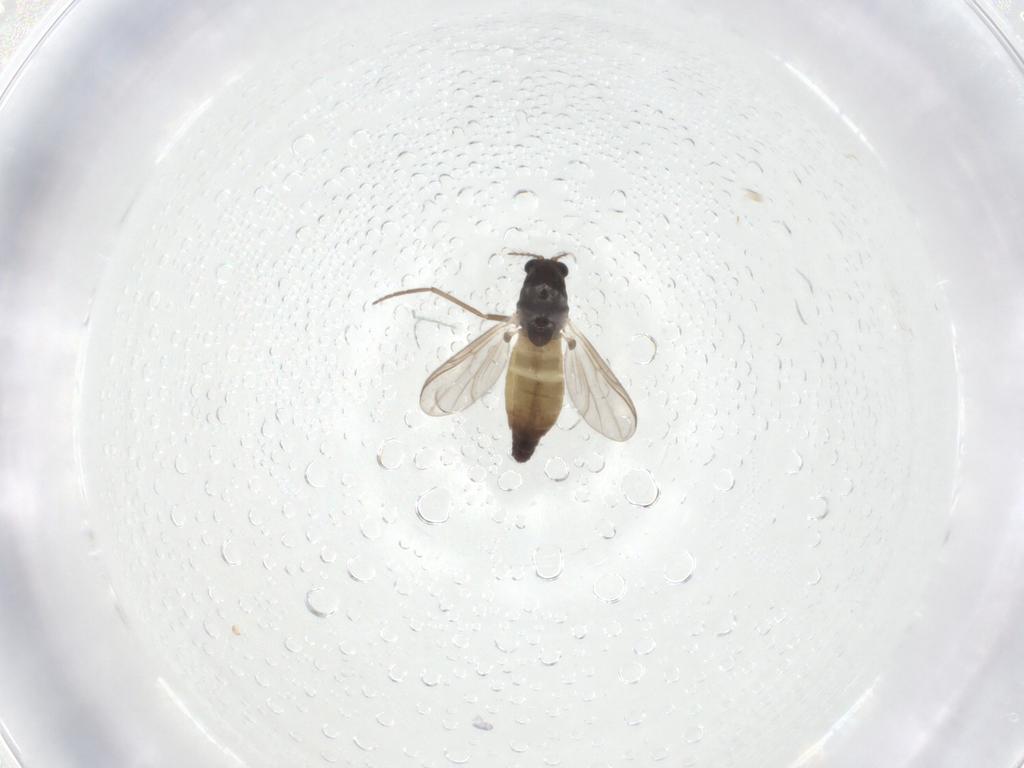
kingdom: Animalia
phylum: Arthropoda
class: Insecta
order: Diptera
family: Chironomidae
